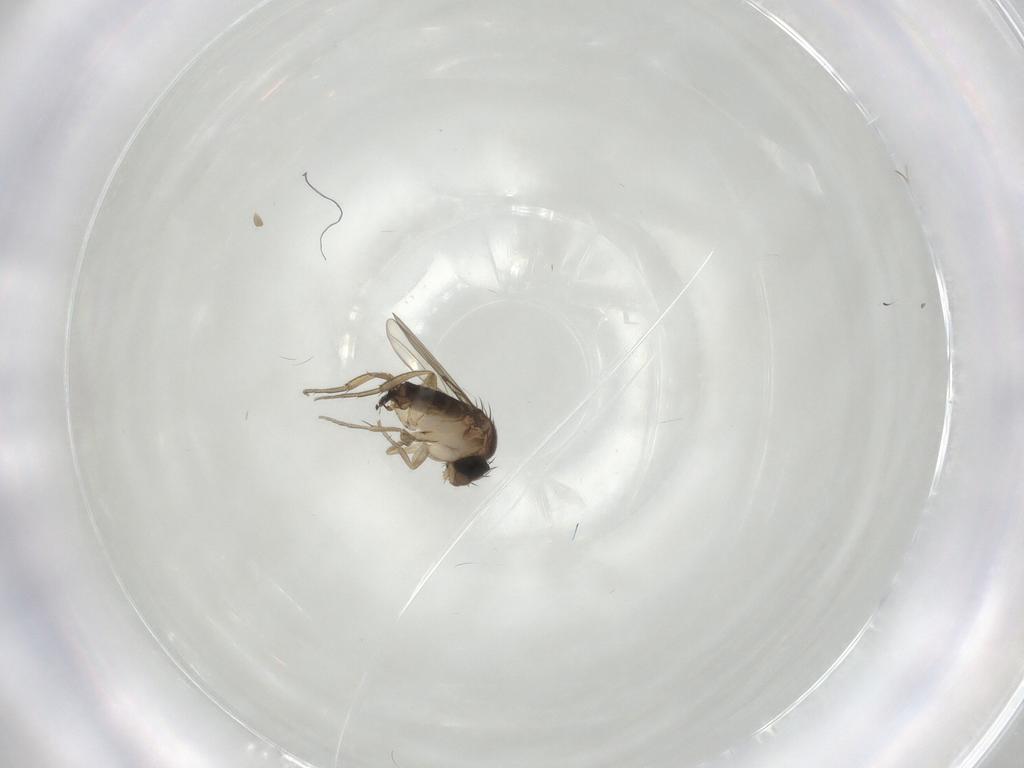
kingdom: Animalia
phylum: Arthropoda
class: Insecta
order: Diptera
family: Phoridae
